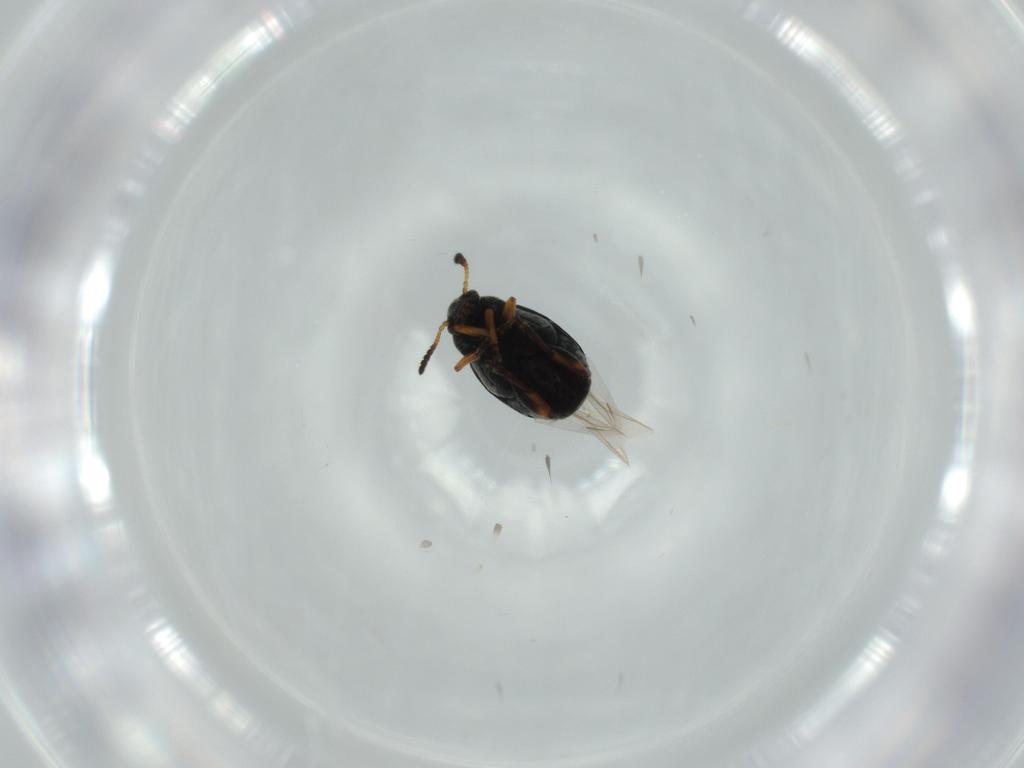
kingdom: Animalia
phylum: Arthropoda
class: Insecta
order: Coleoptera
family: Chrysomelidae
